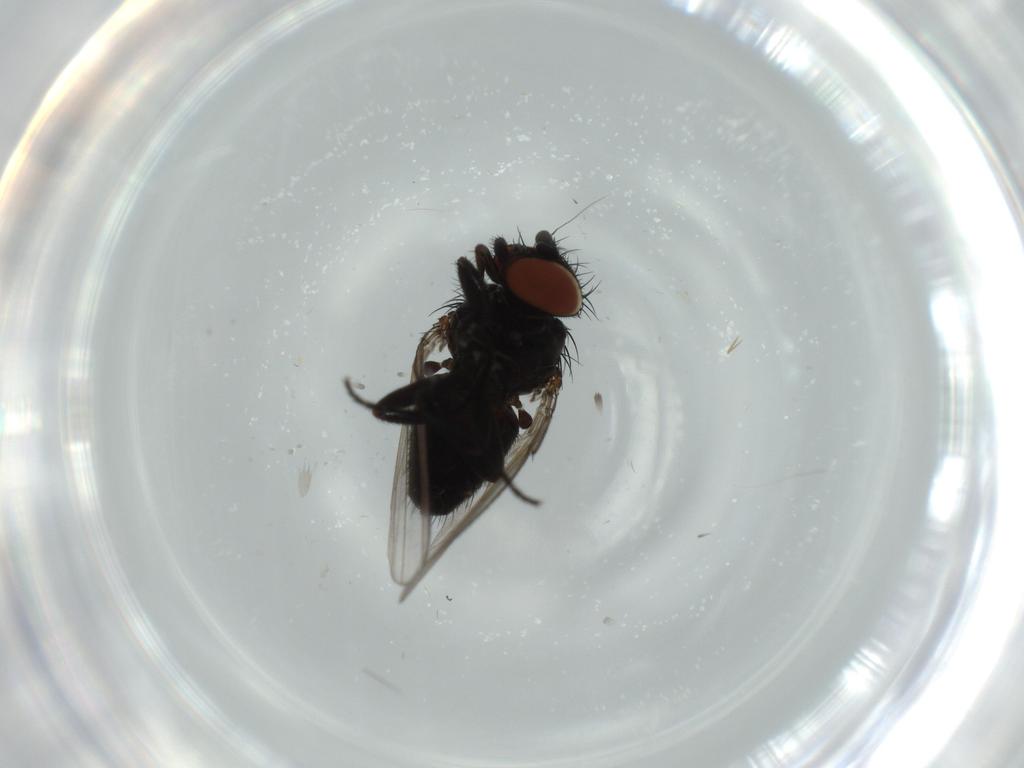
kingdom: Animalia
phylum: Arthropoda
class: Insecta
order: Diptera
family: Milichiidae
